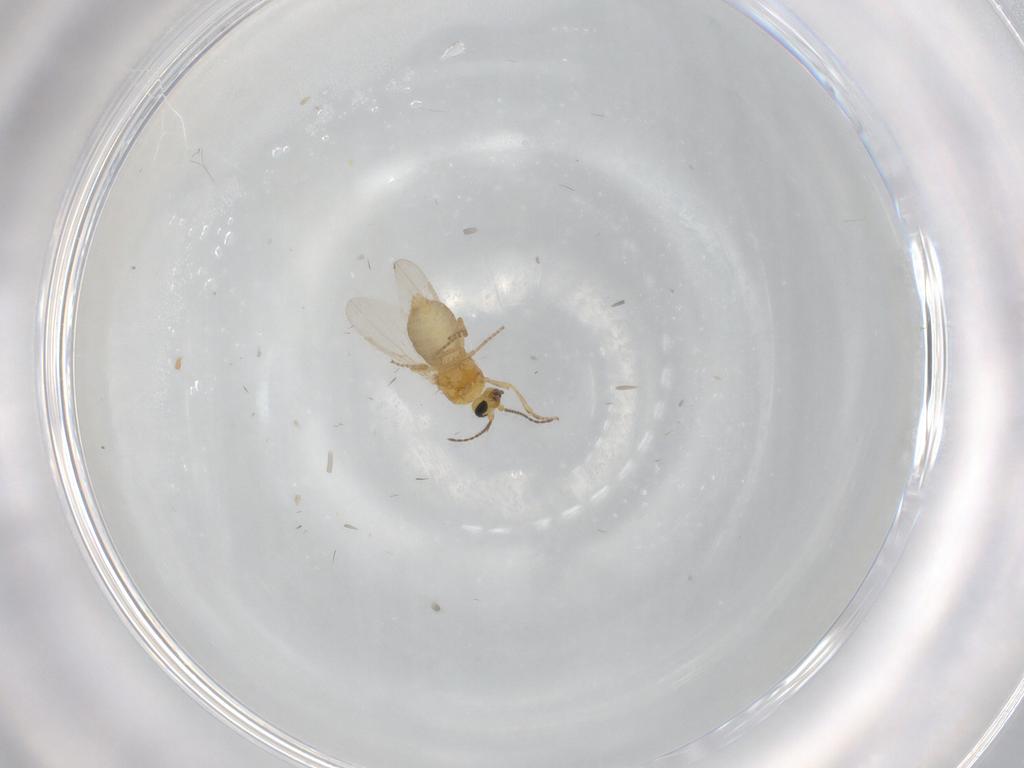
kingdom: Animalia
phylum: Arthropoda
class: Insecta
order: Diptera
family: Ceratopogonidae
